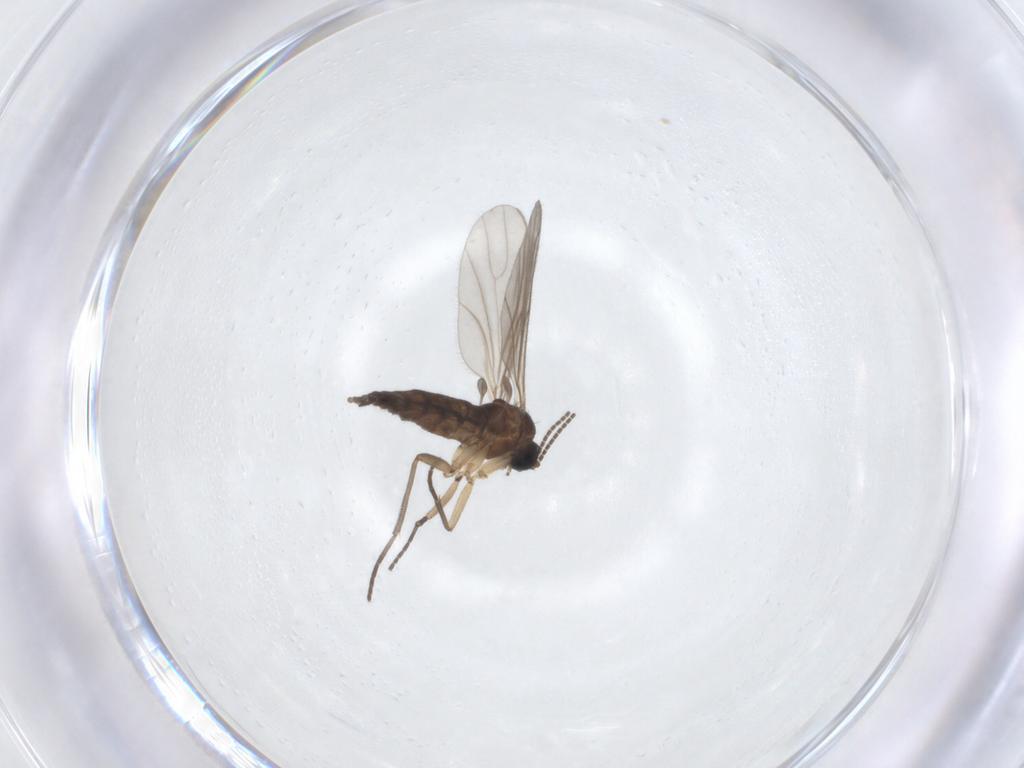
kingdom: Animalia
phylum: Arthropoda
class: Insecta
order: Diptera
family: Sciaridae
